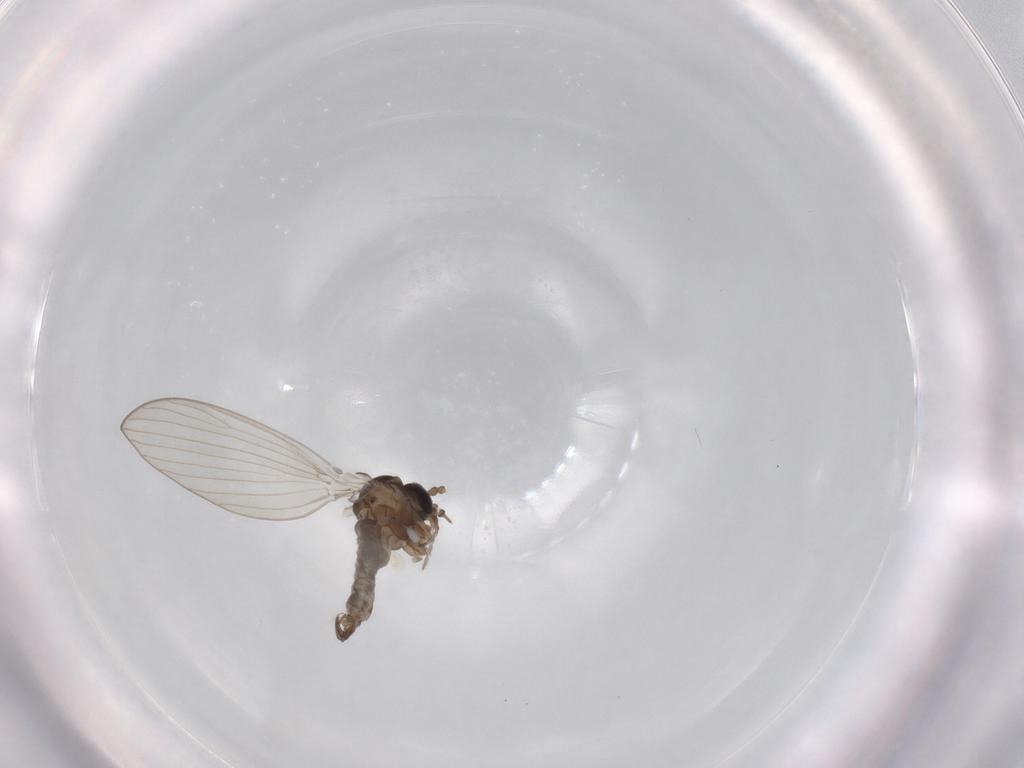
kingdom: Animalia
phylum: Arthropoda
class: Insecta
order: Diptera
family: Psychodidae
